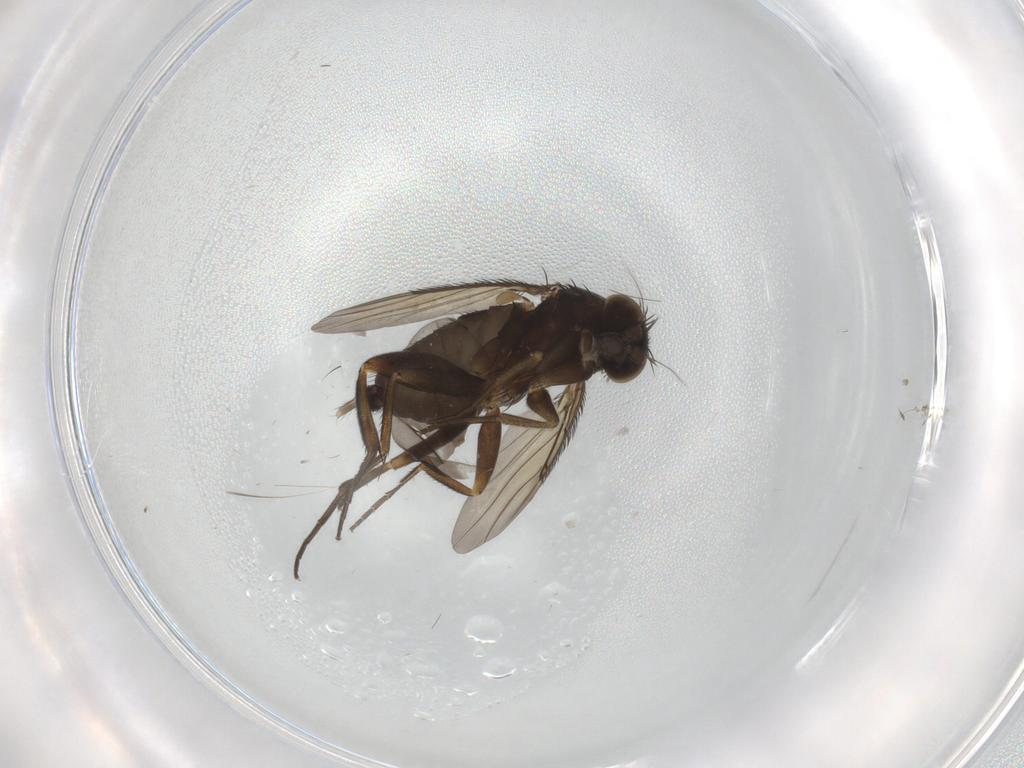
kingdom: Animalia
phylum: Arthropoda
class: Insecta
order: Diptera
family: Phoridae
